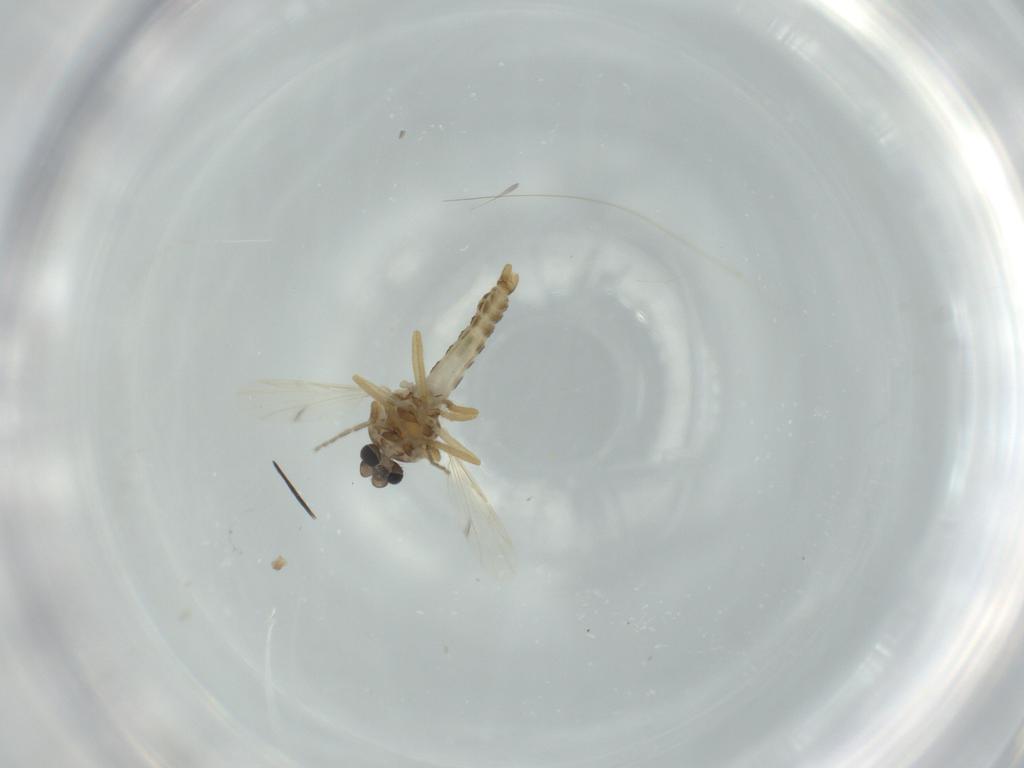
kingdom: Animalia
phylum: Arthropoda
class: Insecta
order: Diptera
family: Ceratopogonidae
